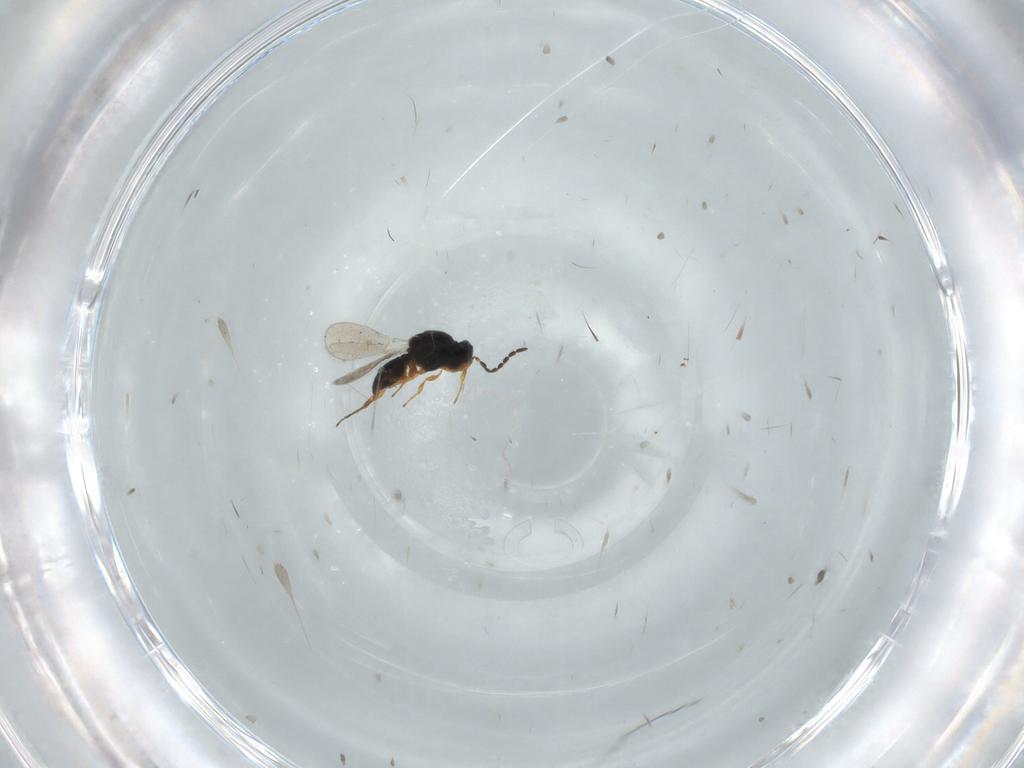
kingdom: Animalia
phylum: Arthropoda
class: Insecta
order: Hymenoptera
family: Platygastridae
